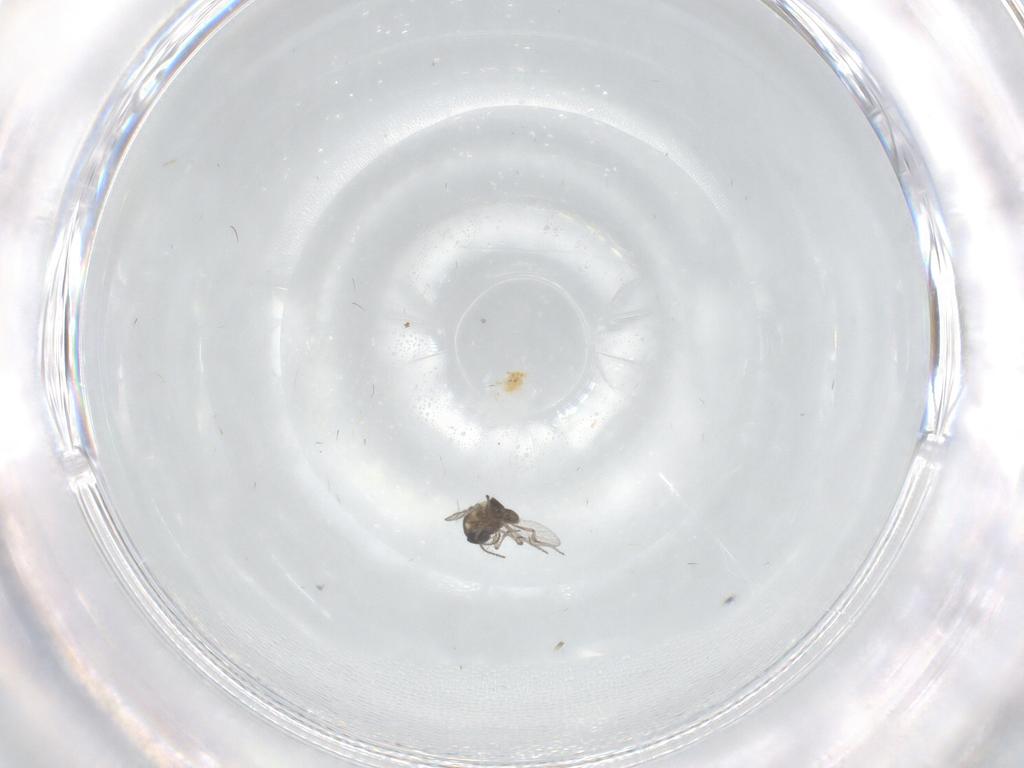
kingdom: Animalia
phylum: Arthropoda
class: Insecta
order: Diptera
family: Ceratopogonidae
